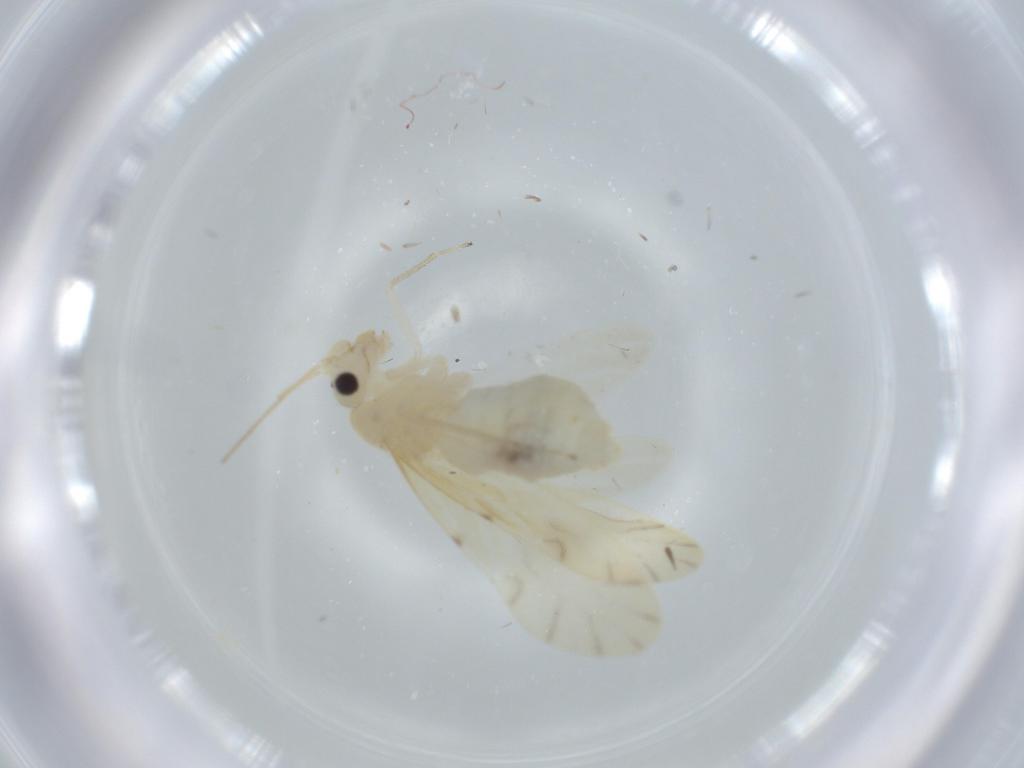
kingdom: Animalia
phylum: Arthropoda
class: Insecta
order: Psocodea
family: Caeciliusidae
